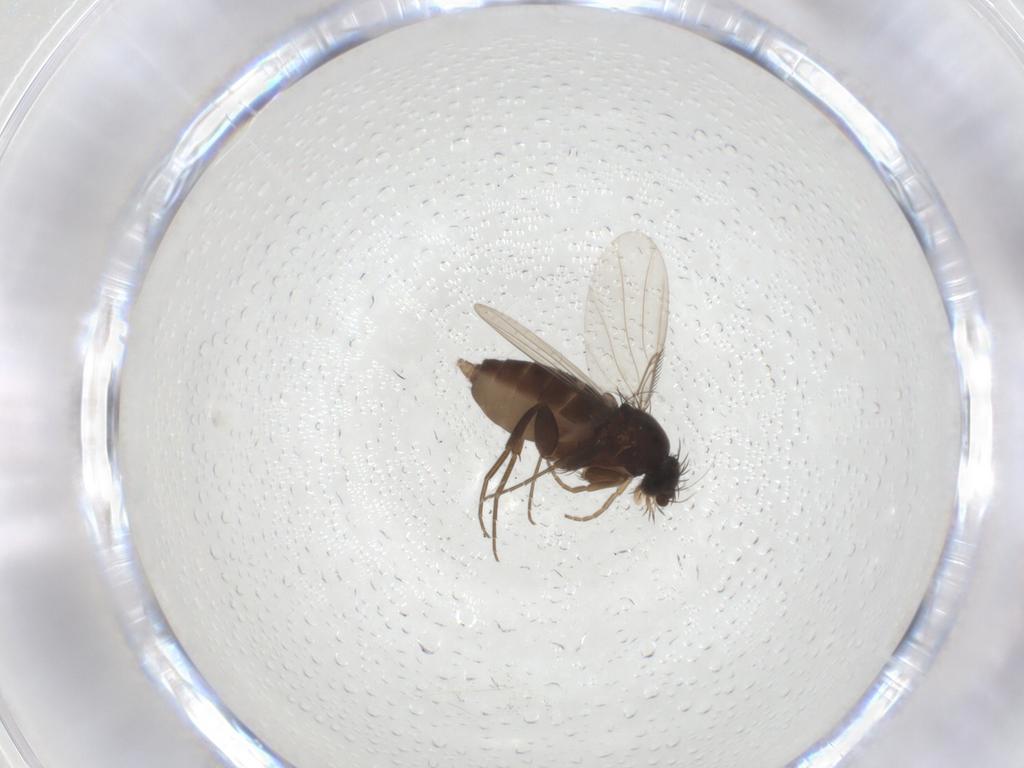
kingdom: Animalia
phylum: Arthropoda
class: Insecta
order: Diptera
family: Phoridae
